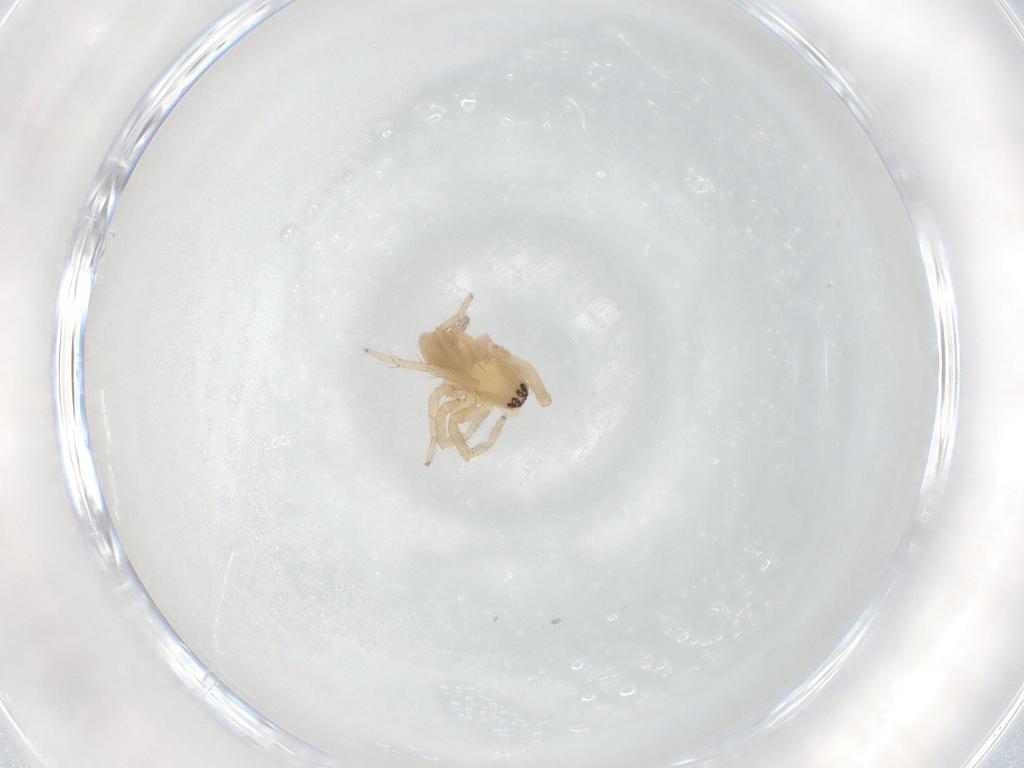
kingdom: Animalia
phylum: Arthropoda
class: Arachnida
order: Araneae
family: Anyphaenidae
